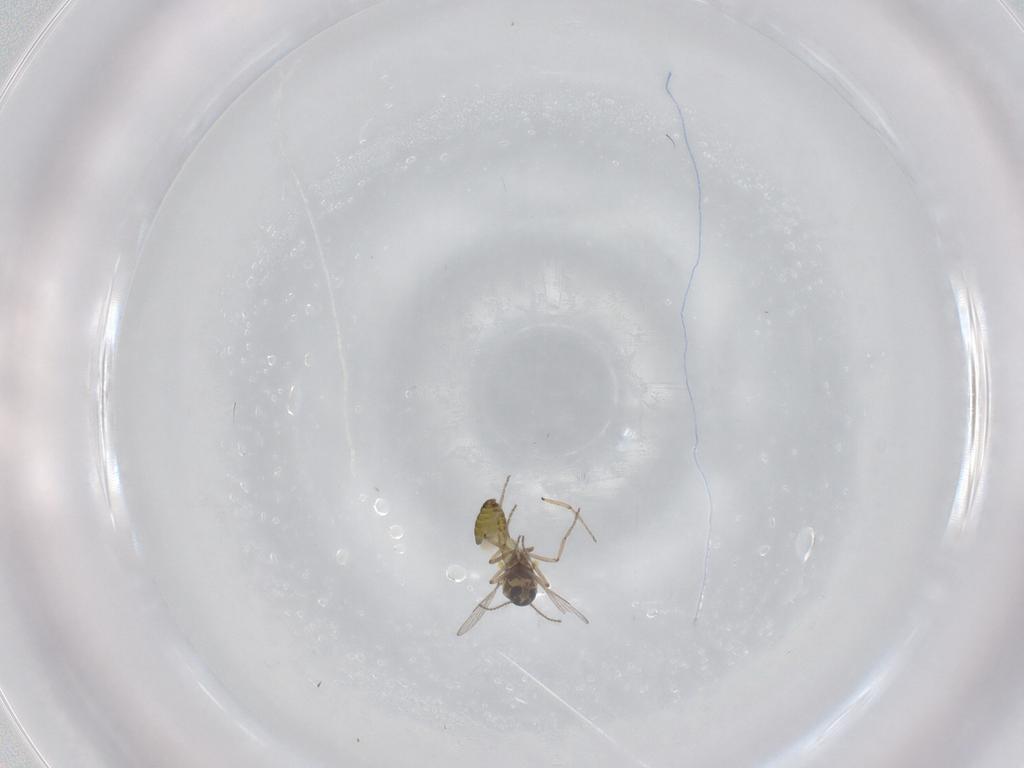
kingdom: Animalia
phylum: Arthropoda
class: Insecta
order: Diptera
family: Ceratopogonidae
